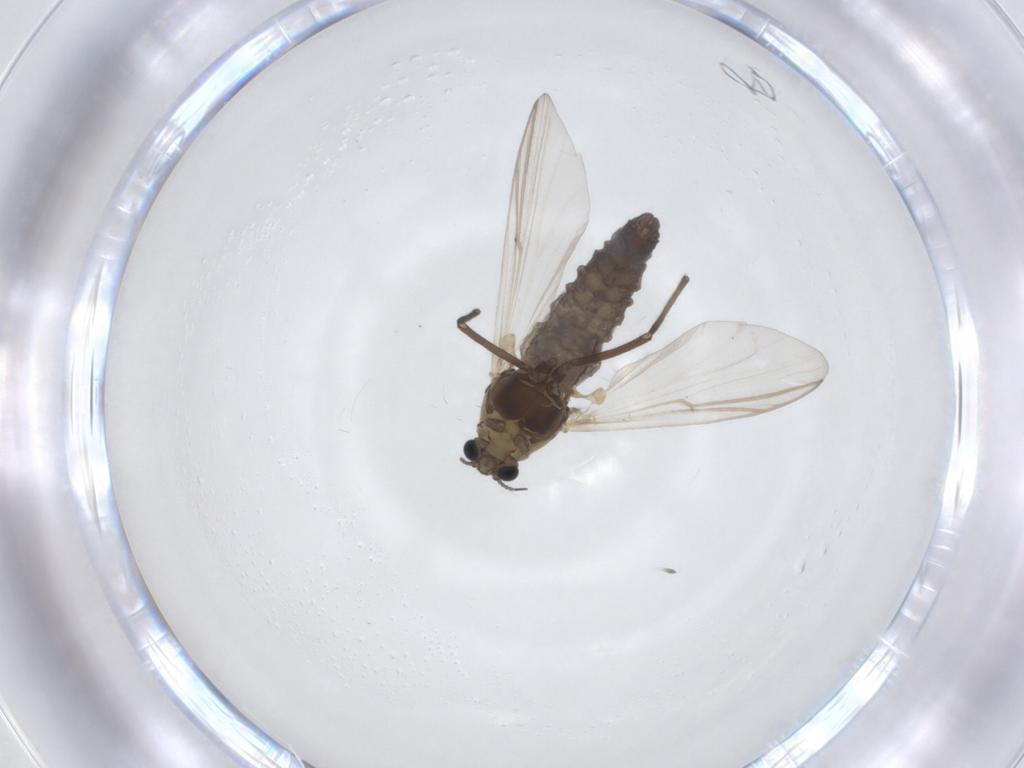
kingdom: Animalia
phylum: Arthropoda
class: Insecta
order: Diptera
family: Chironomidae
